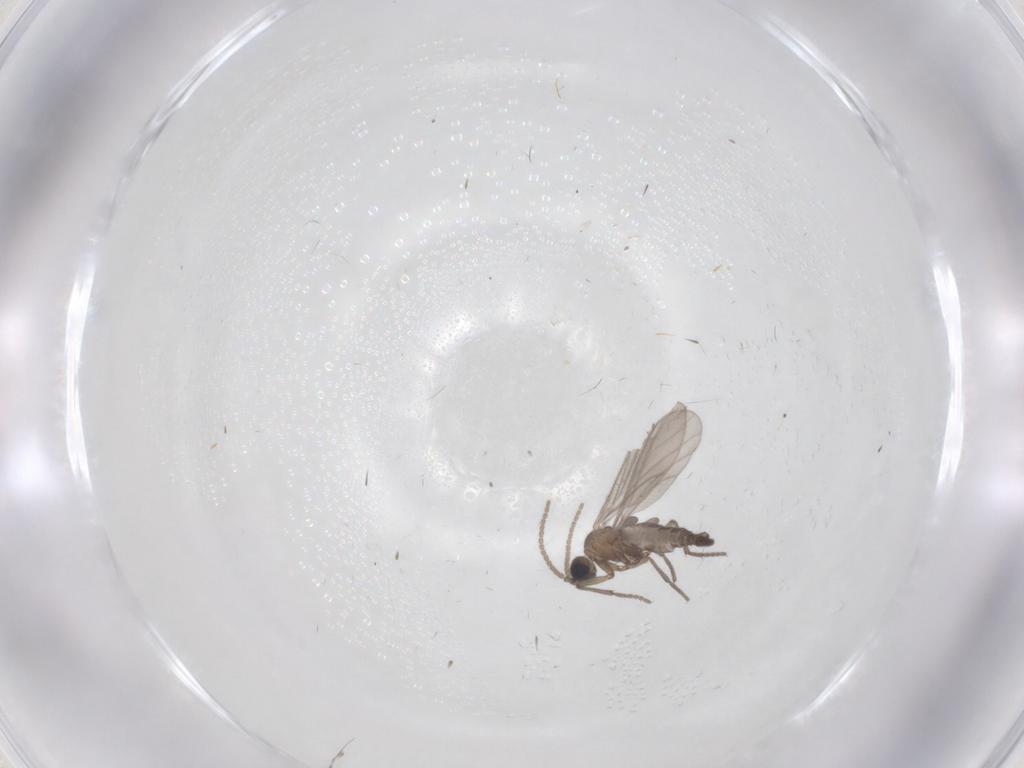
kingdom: Animalia
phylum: Arthropoda
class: Insecta
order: Diptera
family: Sciaridae
